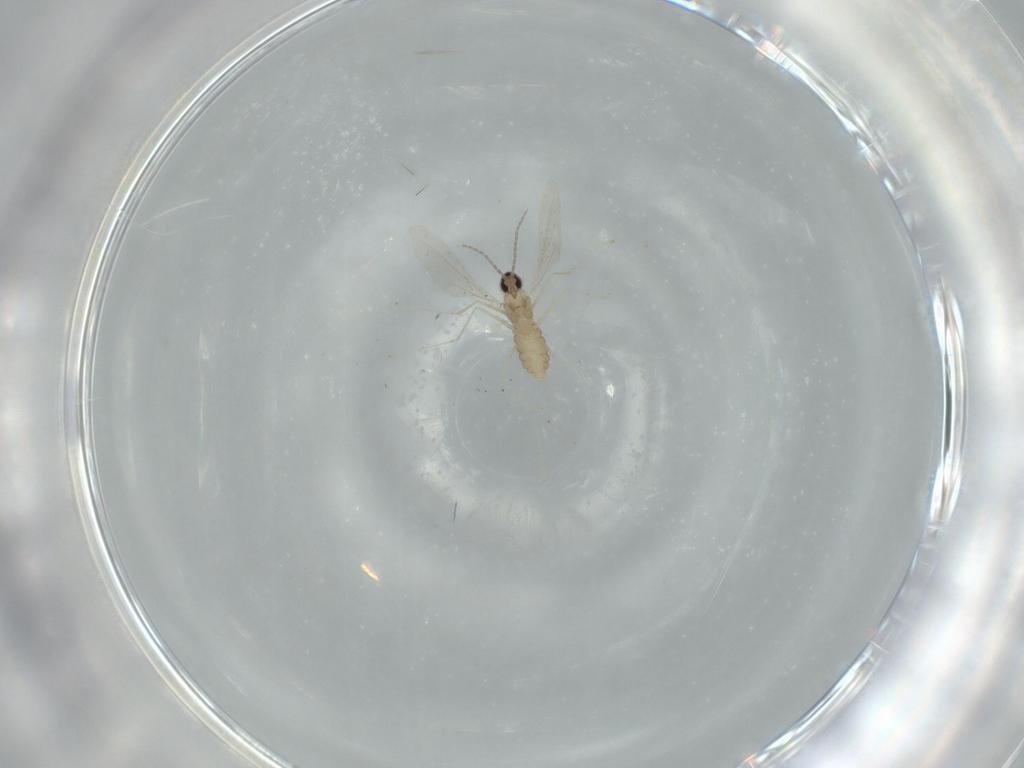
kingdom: Animalia
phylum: Arthropoda
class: Insecta
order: Diptera
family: Cecidomyiidae
